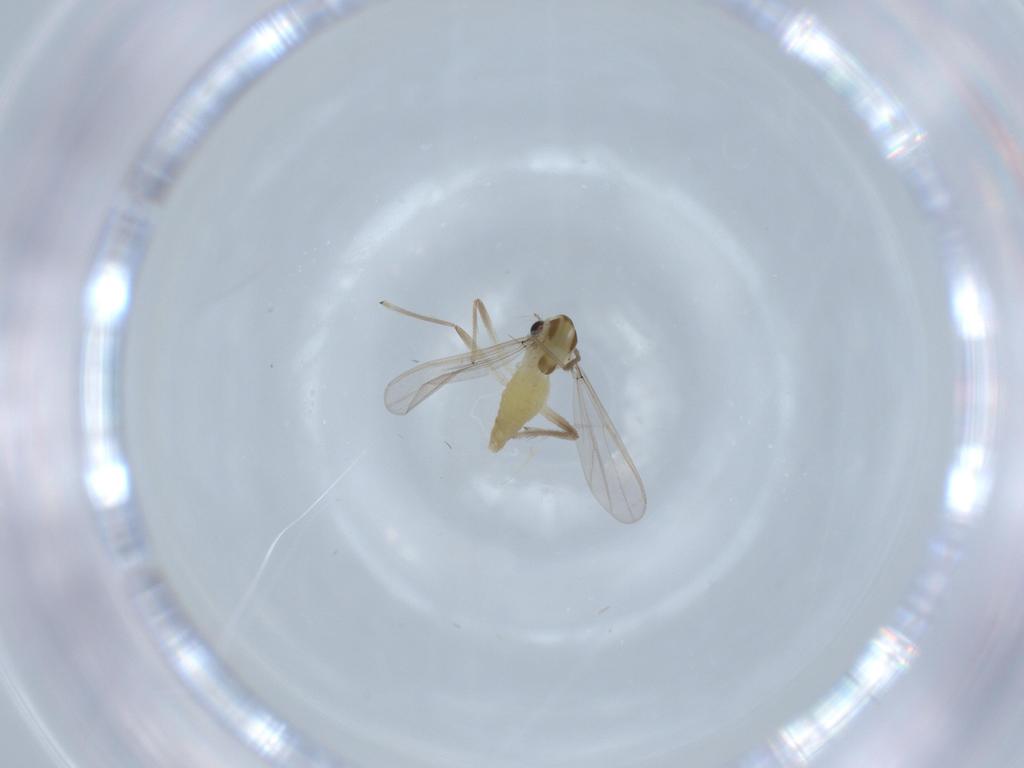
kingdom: Animalia
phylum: Arthropoda
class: Insecta
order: Diptera
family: Chironomidae
